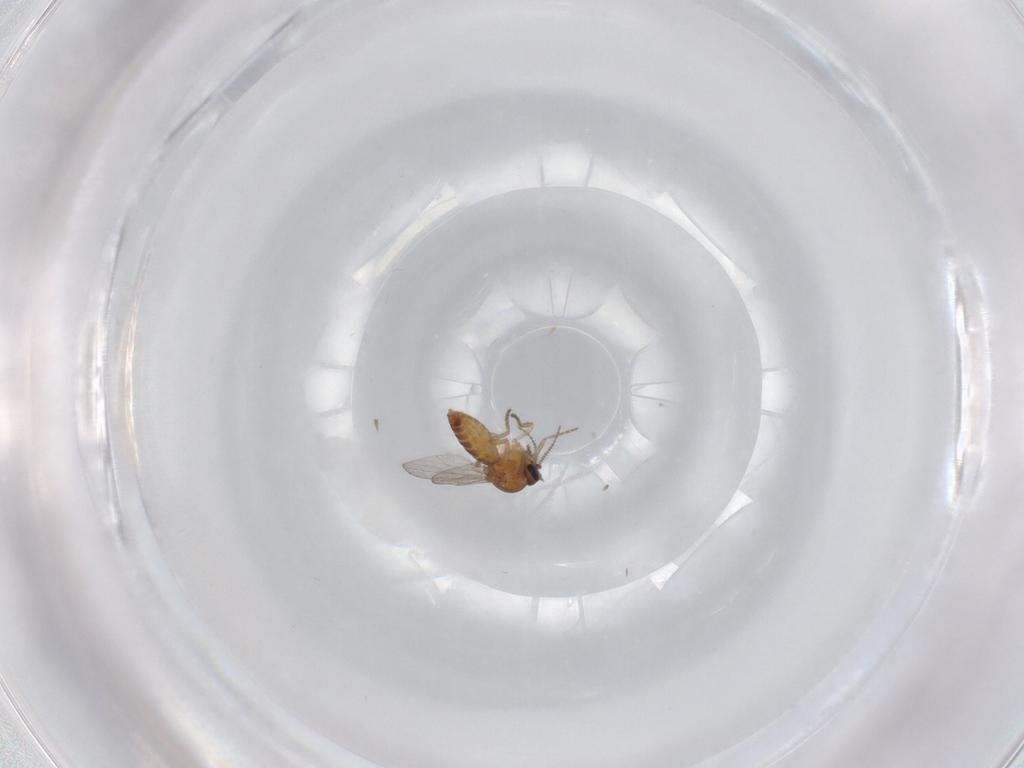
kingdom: Animalia
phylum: Arthropoda
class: Insecta
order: Diptera
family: Ceratopogonidae
